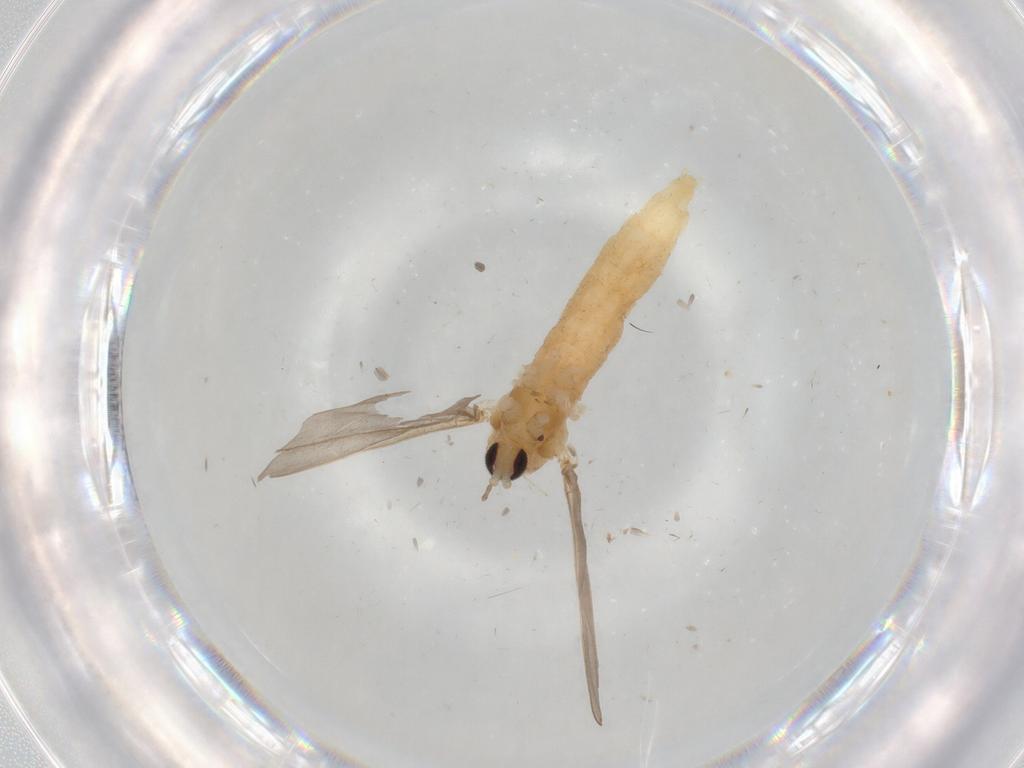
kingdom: Animalia
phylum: Arthropoda
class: Insecta
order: Diptera
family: Cecidomyiidae
